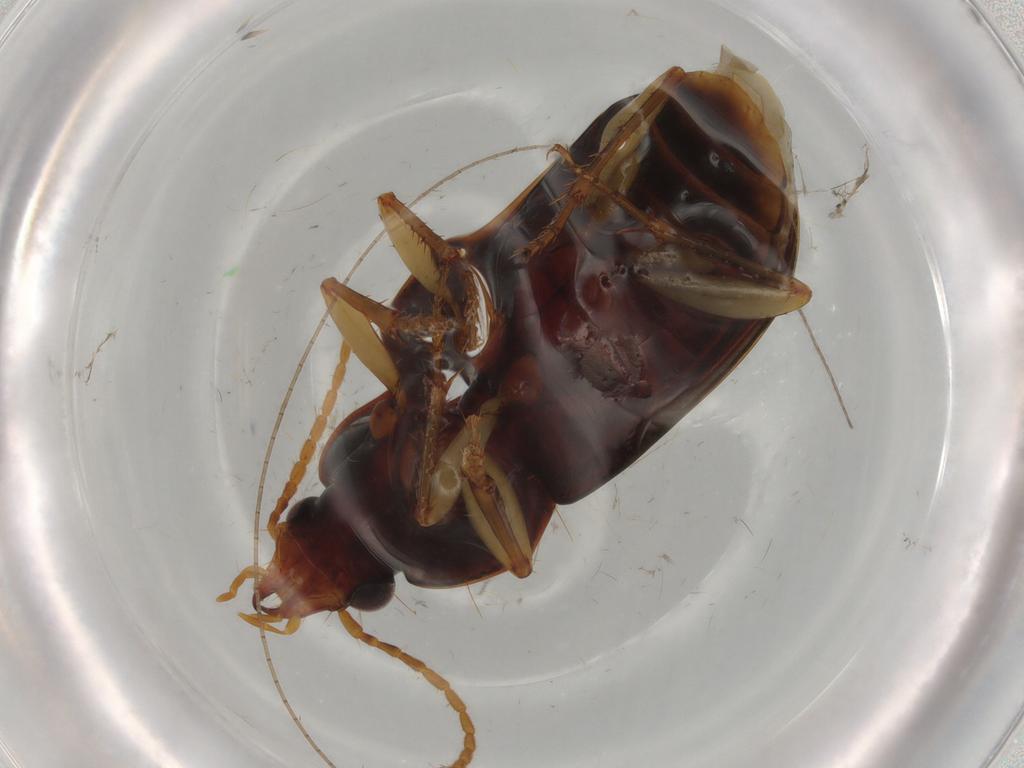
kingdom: Animalia
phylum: Arthropoda
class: Insecta
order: Coleoptera
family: Carabidae
